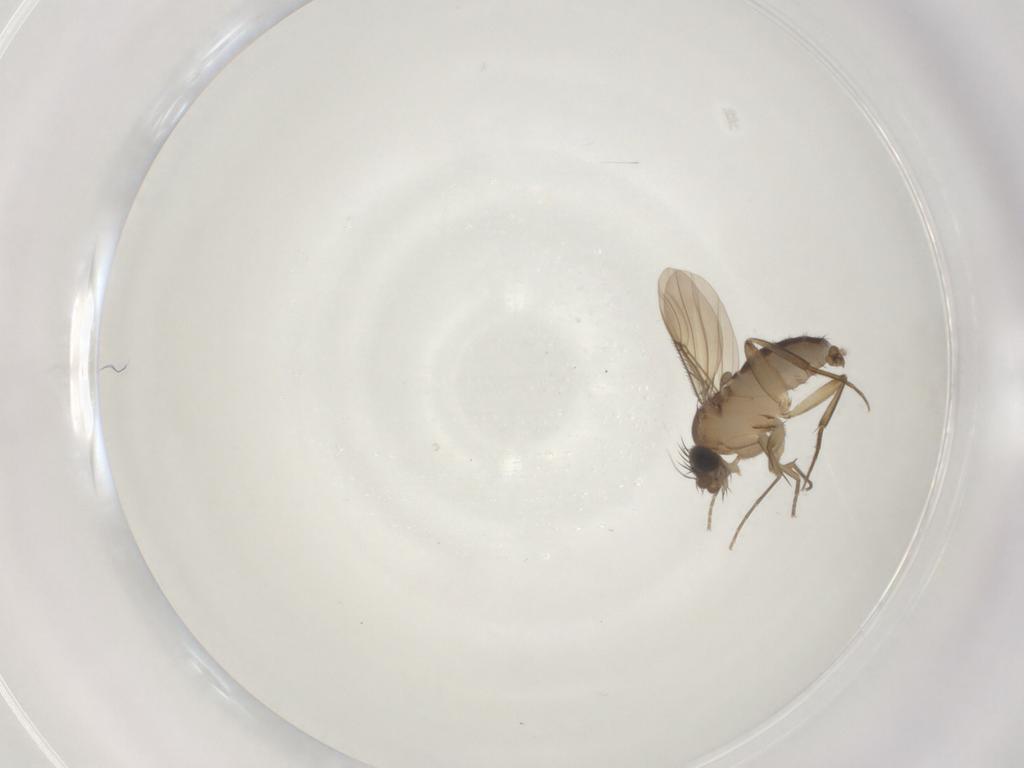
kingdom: Animalia
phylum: Arthropoda
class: Insecta
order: Diptera
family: Phoridae
